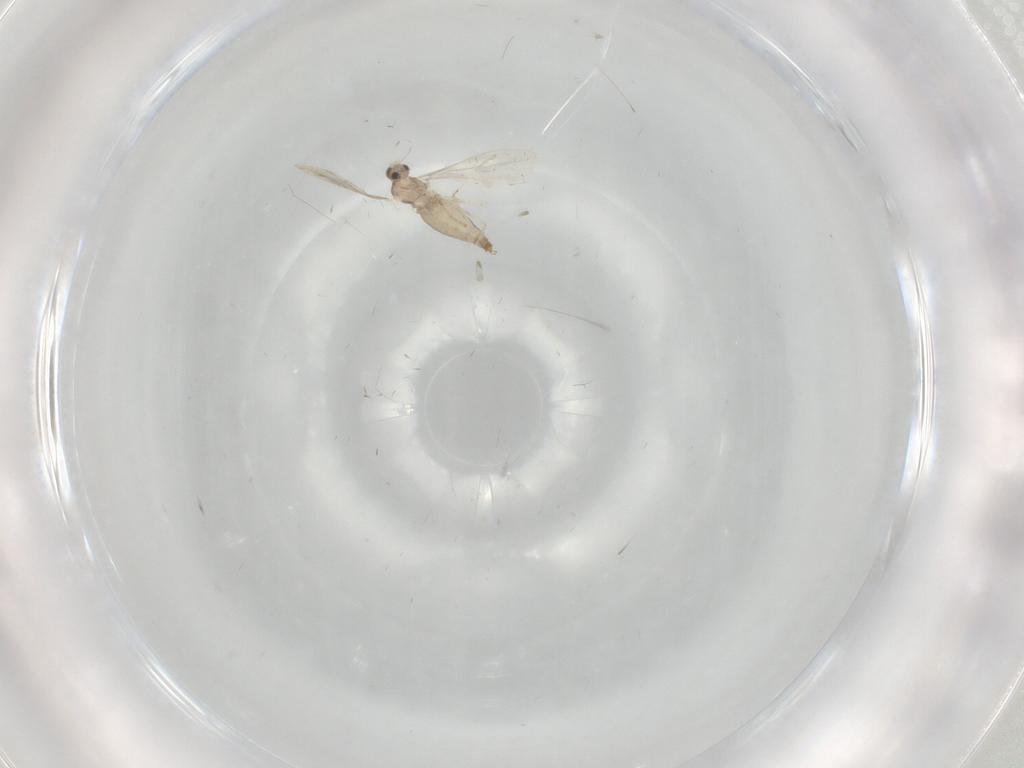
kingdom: Animalia
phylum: Arthropoda
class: Insecta
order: Diptera
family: Cecidomyiidae
